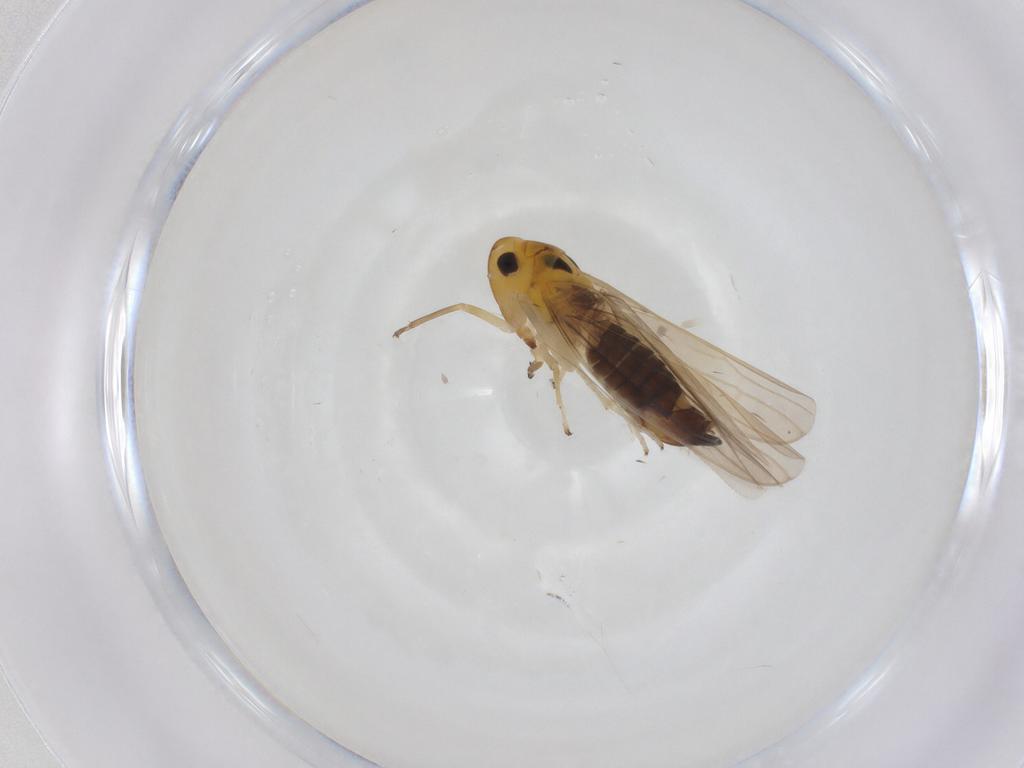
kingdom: Animalia
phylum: Arthropoda
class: Insecta
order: Hemiptera
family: Cicadellidae
